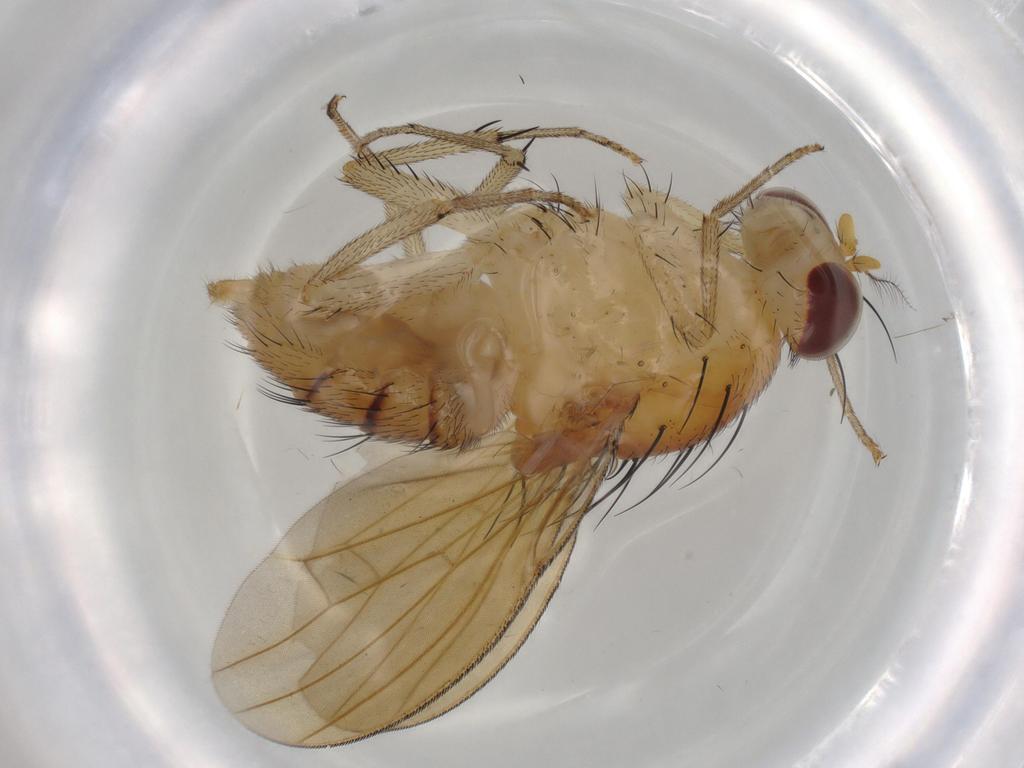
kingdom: Animalia
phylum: Arthropoda
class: Insecta
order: Diptera
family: Lauxaniidae
